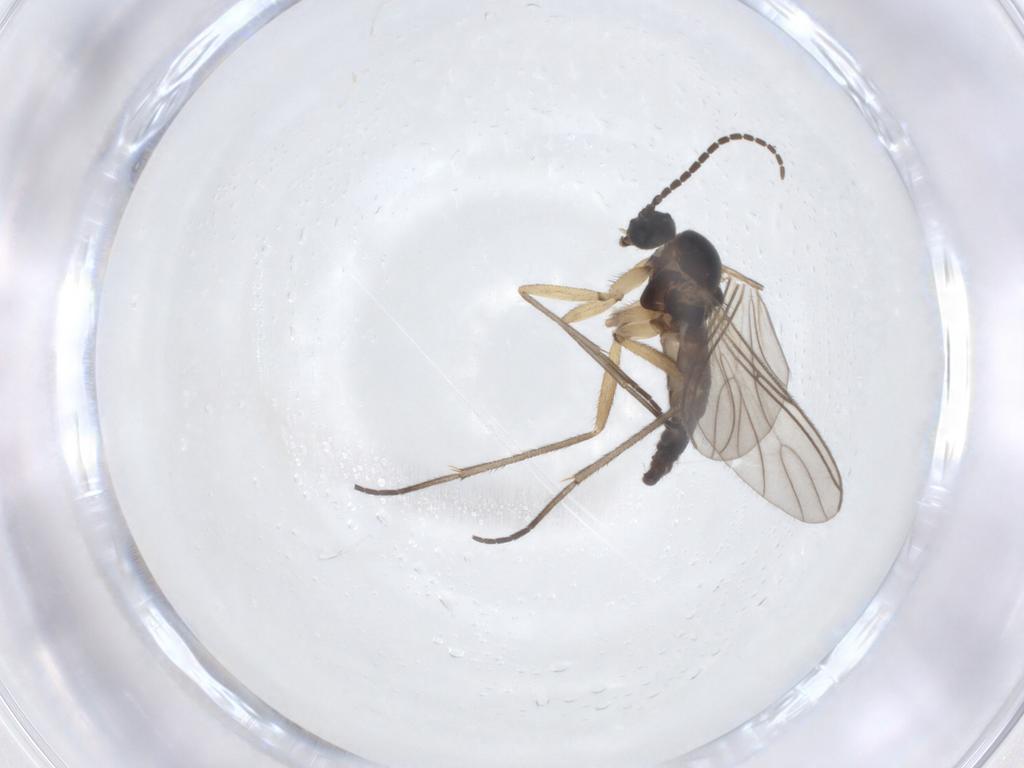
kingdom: Animalia
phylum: Arthropoda
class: Insecta
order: Diptera
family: Sciaridae
